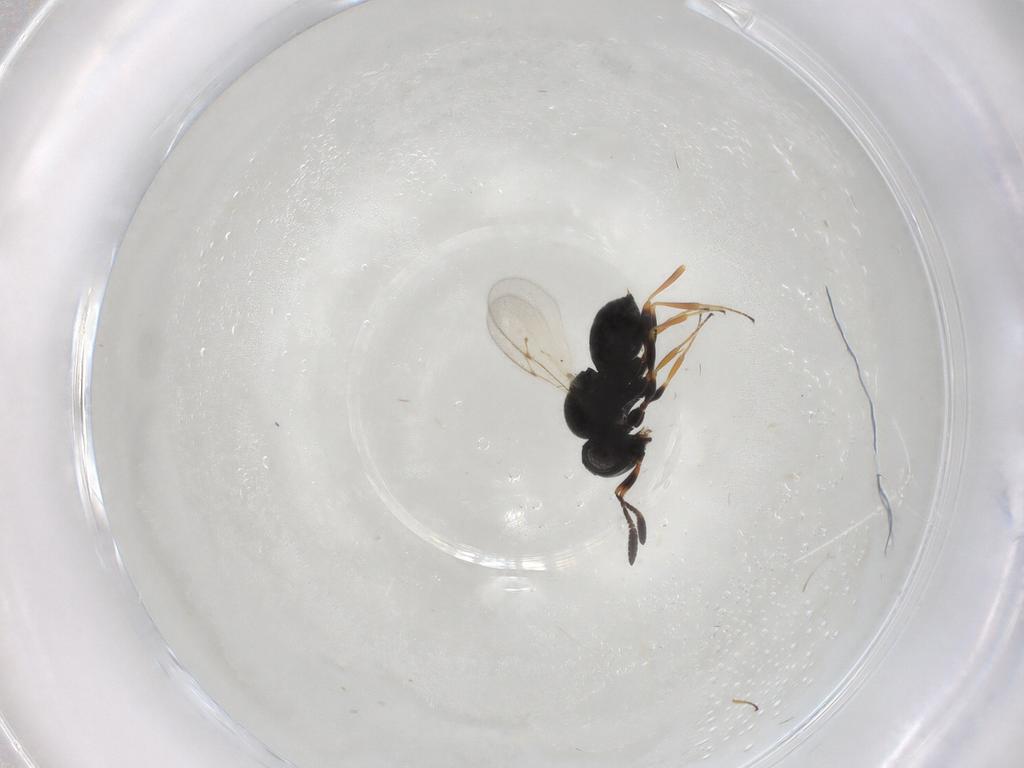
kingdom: Animalia
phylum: Arthropoda
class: Insecta
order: Hymenoptera
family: Scelionidae
